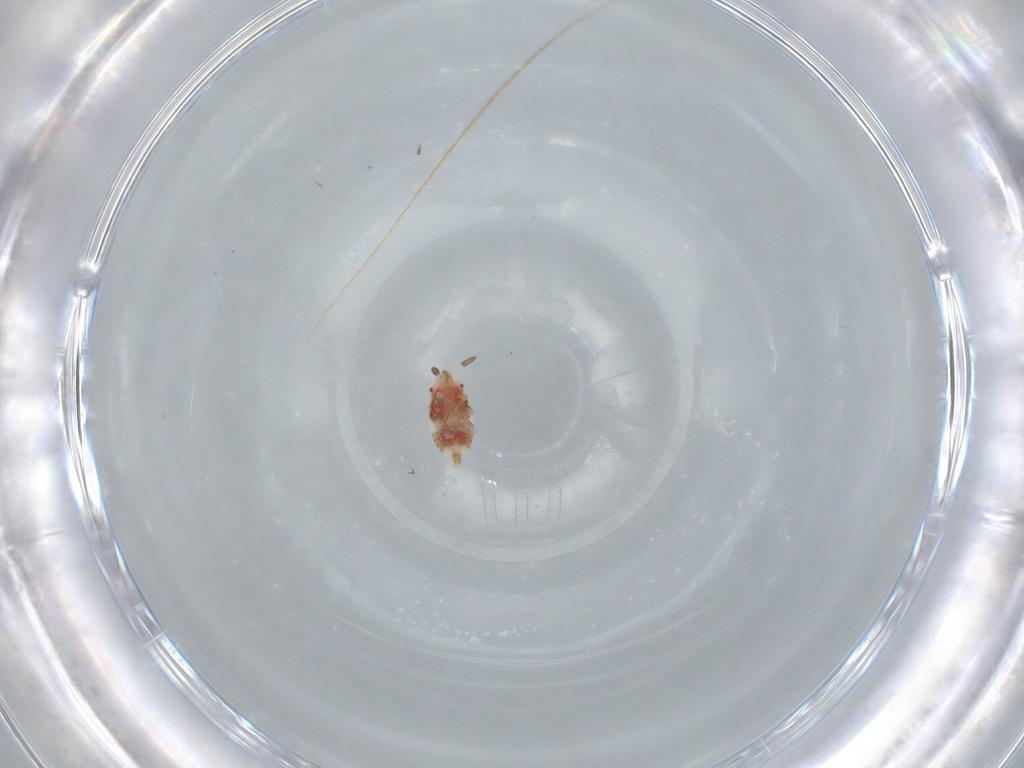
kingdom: Animalia
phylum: Arthropoda
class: Insecta
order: Hemiptera
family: Aradidae
